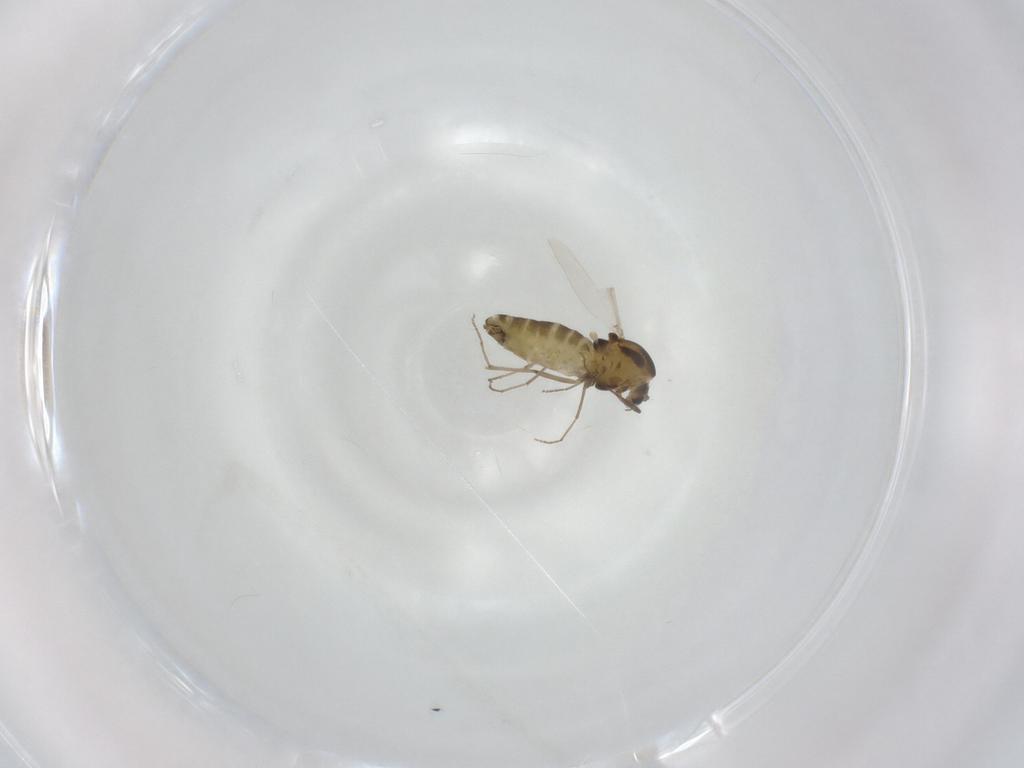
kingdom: Animalia
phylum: Arthropoda
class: Insecta
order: Diptera
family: Chironomidae
